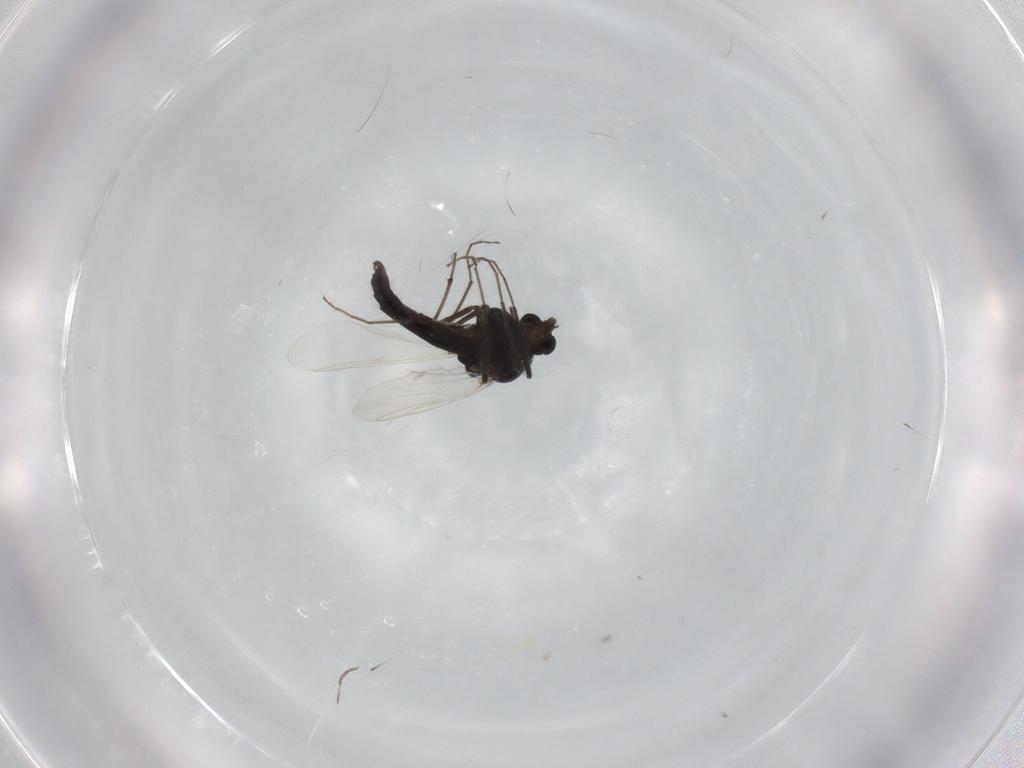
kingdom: Animalia
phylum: Arthropoda
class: Insecta
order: Diptera
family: Chironomidae
